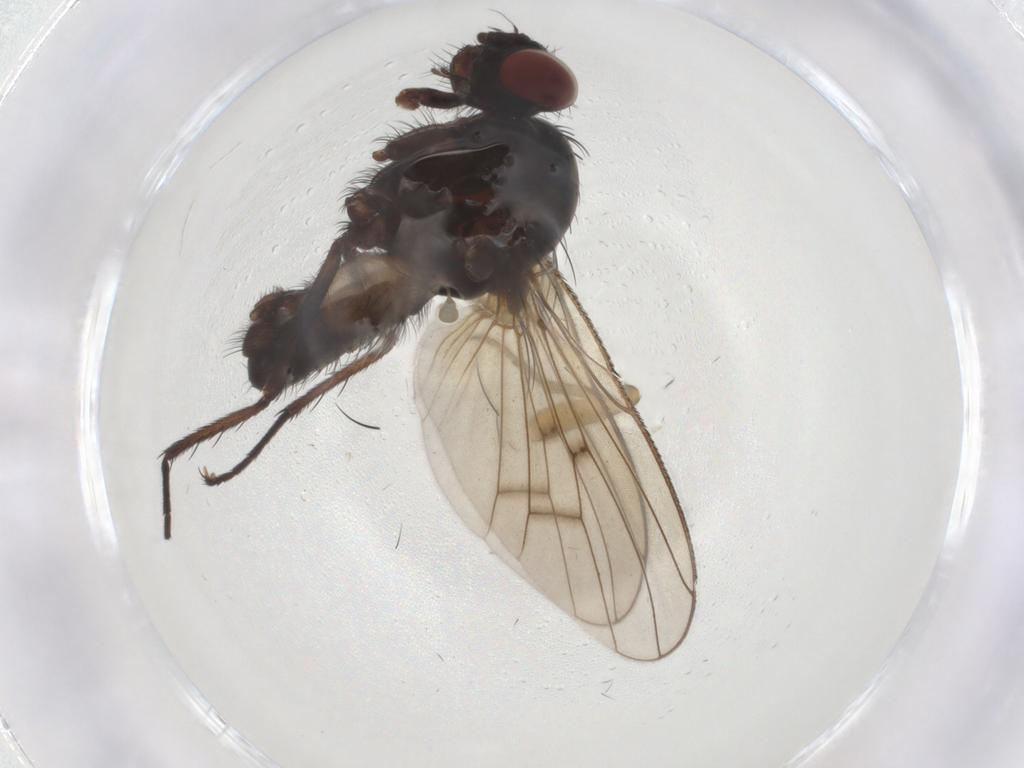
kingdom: Animalia
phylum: Arthropoda
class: Insecta
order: Diptera
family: Anthomyiidae
